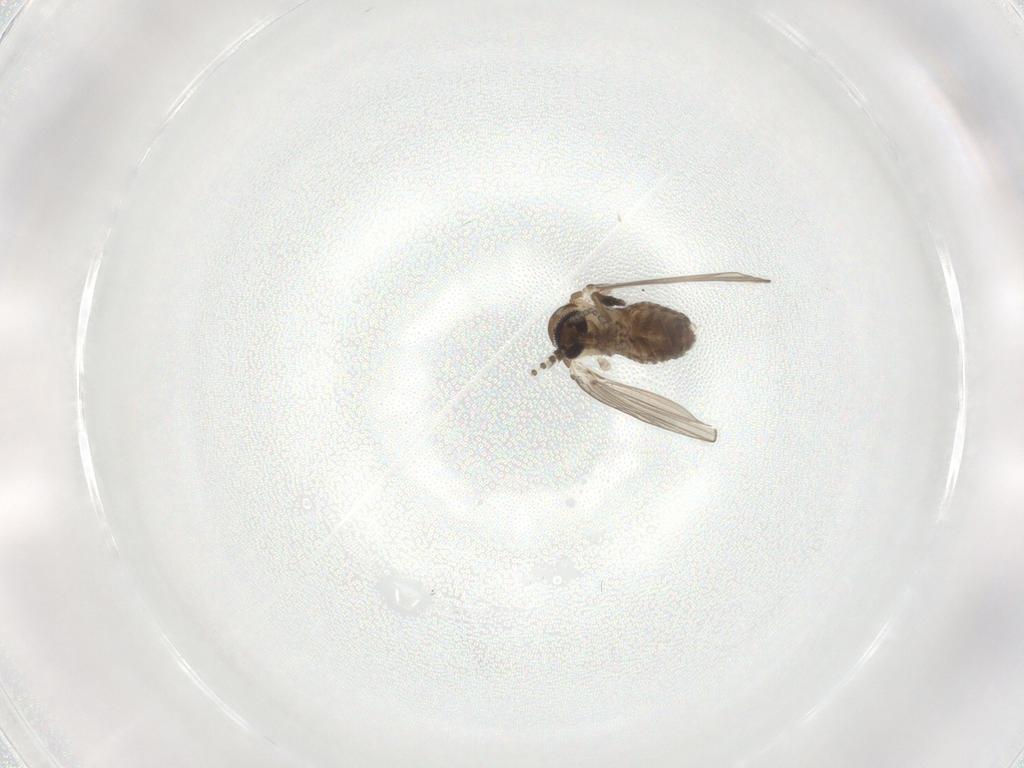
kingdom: Animalia
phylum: Arthropoda
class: Insecta
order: Diptera
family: Psychodidae
